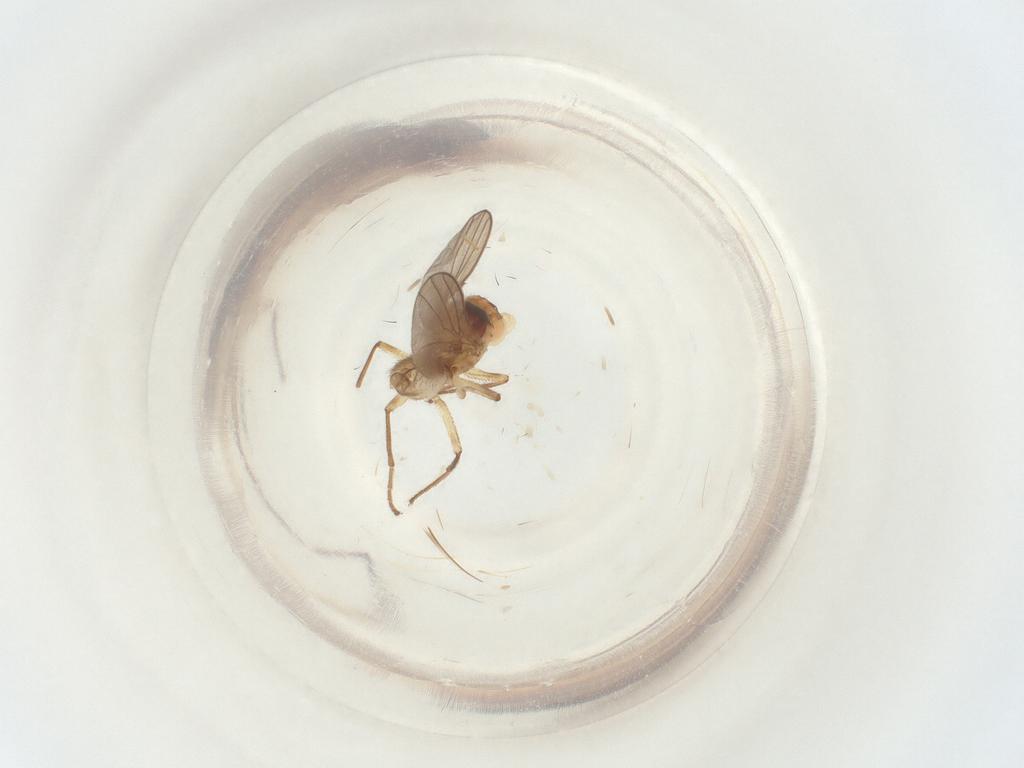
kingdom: Animalia
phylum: Arthropoda
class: Insecta
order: Diptera
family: Agromyzidae
